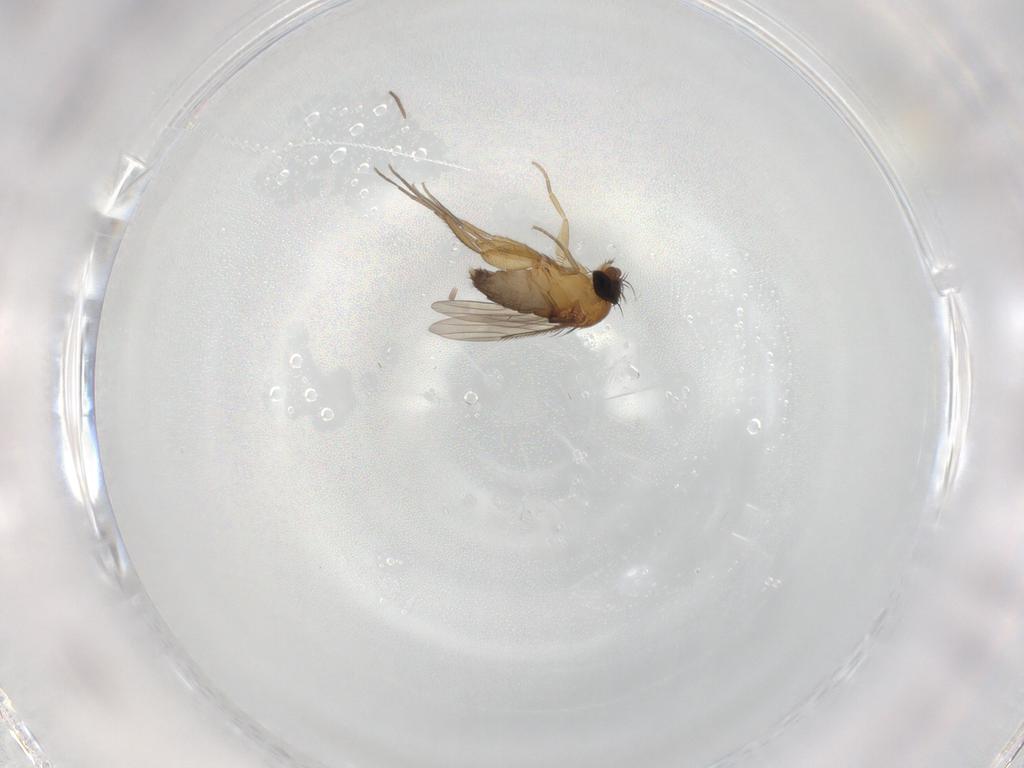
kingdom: Animalia
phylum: Arthropoda
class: Insecta
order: Diptera
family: Phoridae
